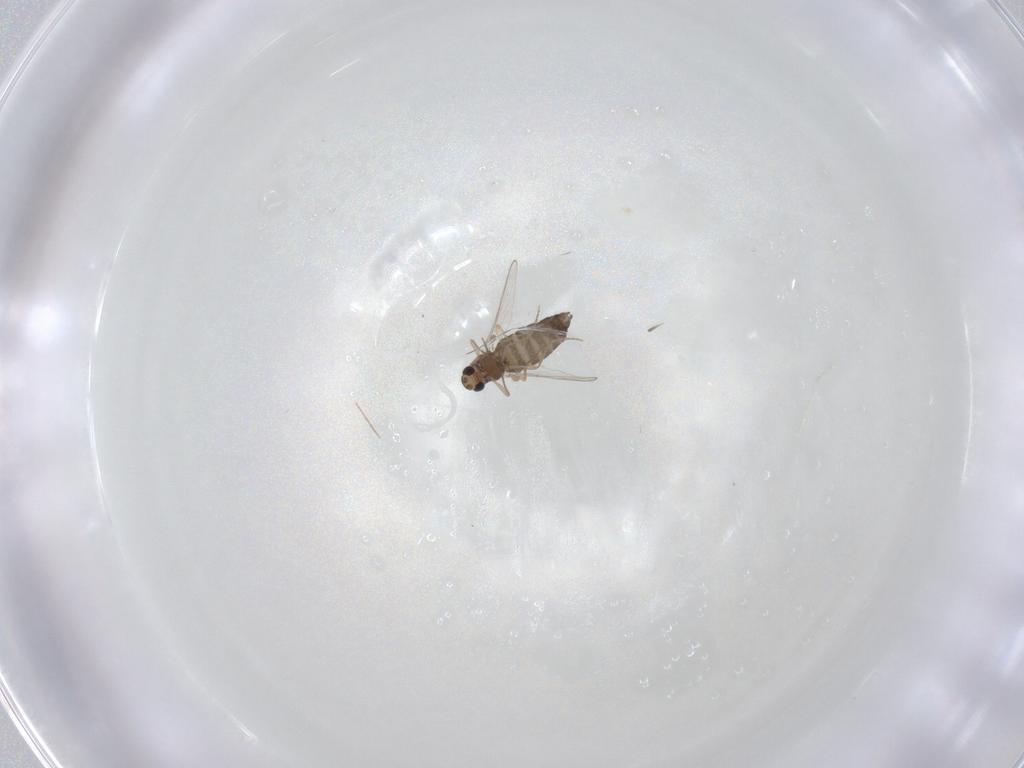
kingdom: Animalia
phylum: Arthropoda
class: Insecta
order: Diptera
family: Chironomidae
